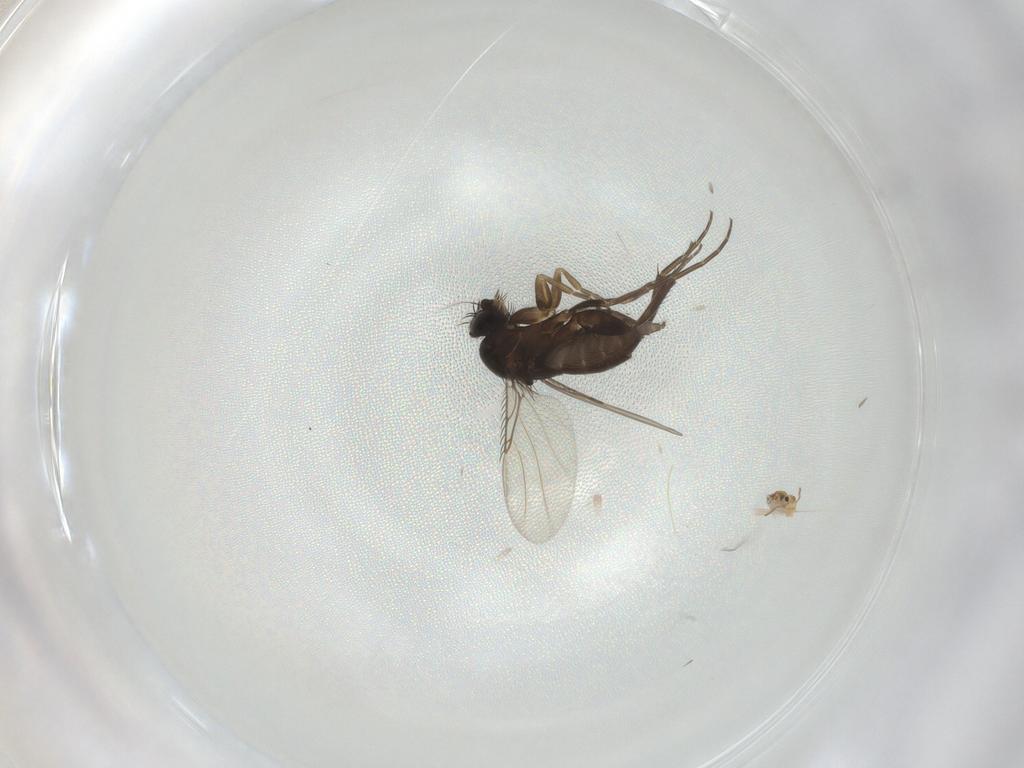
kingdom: Animalia
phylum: Arthropoda
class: Insecta
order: Diptera
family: Phoridae
